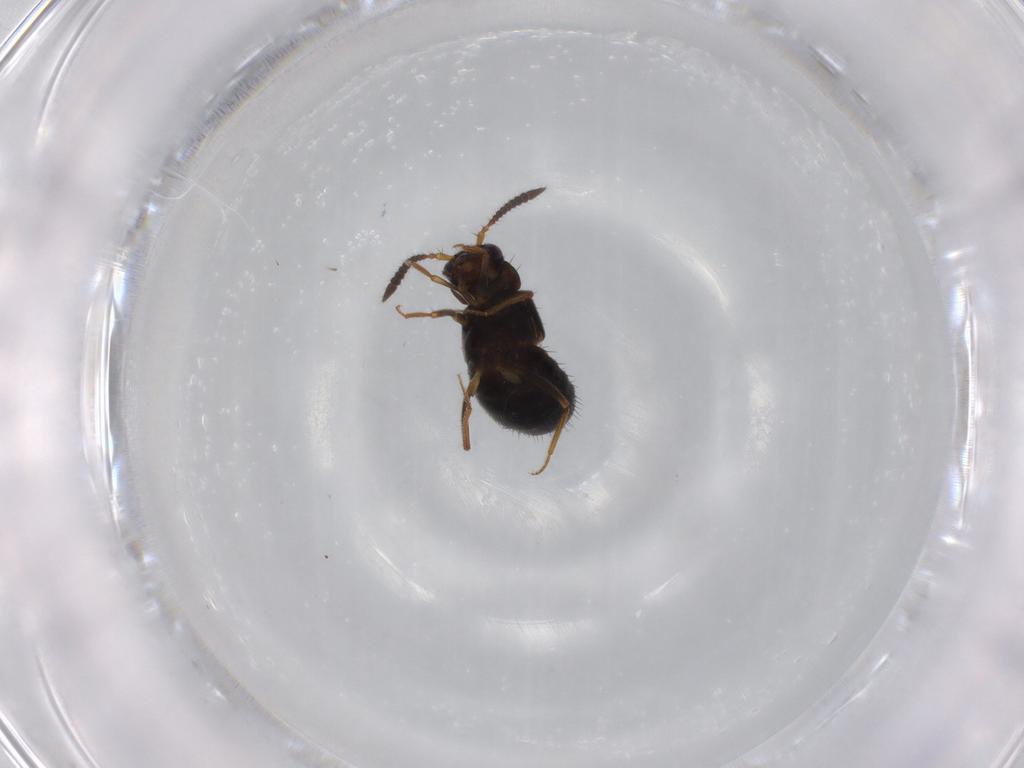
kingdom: Animalia
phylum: Arthropoda
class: Insecta
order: Coleoptera
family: Staphylinidae
